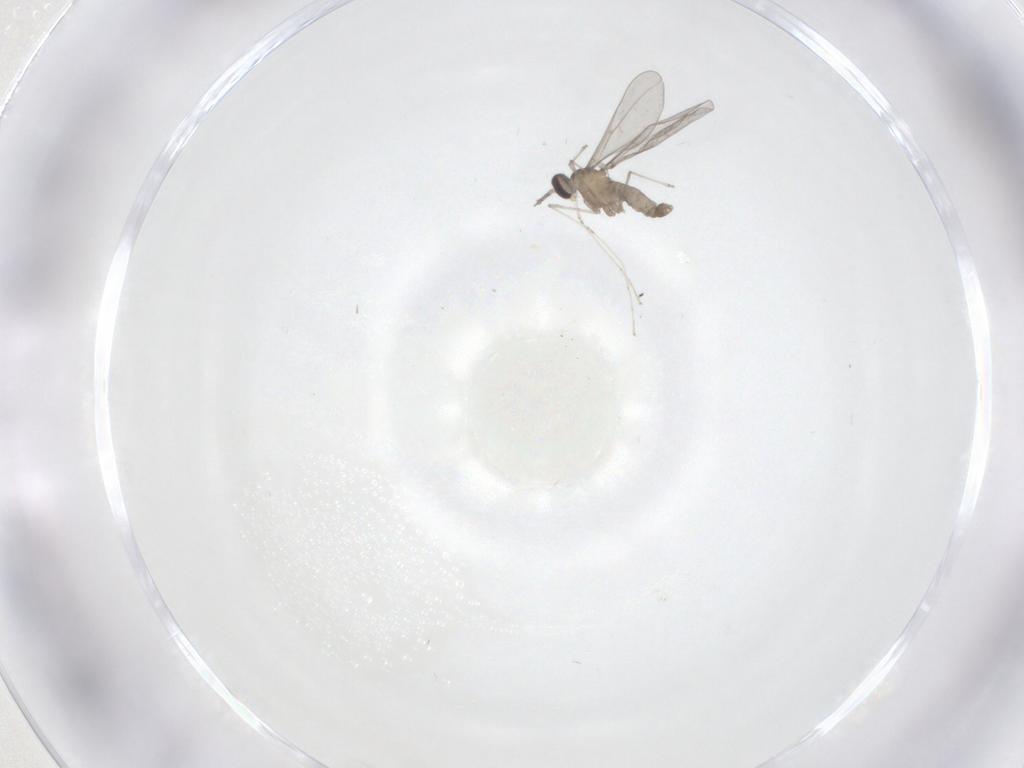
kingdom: Animalia
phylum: Arthropoda
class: Insecta
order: Diptera
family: Cecidomyiidae
